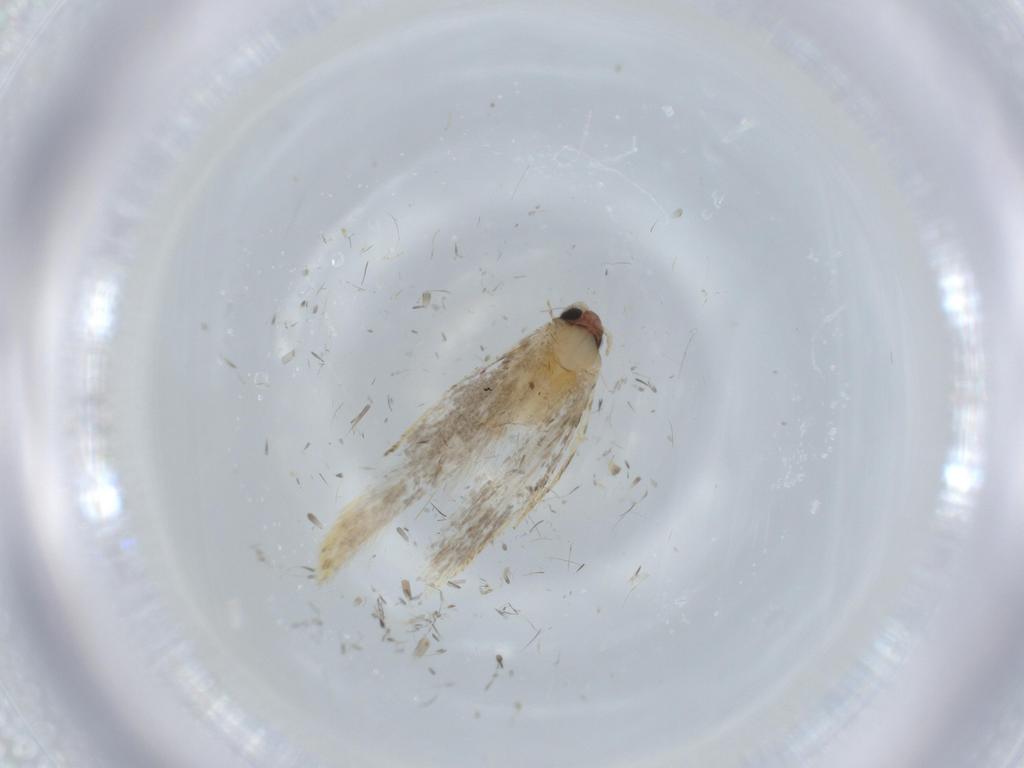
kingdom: Animalia
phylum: Arthropoda
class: Insecta
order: Lepidoptera
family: Tineidae
